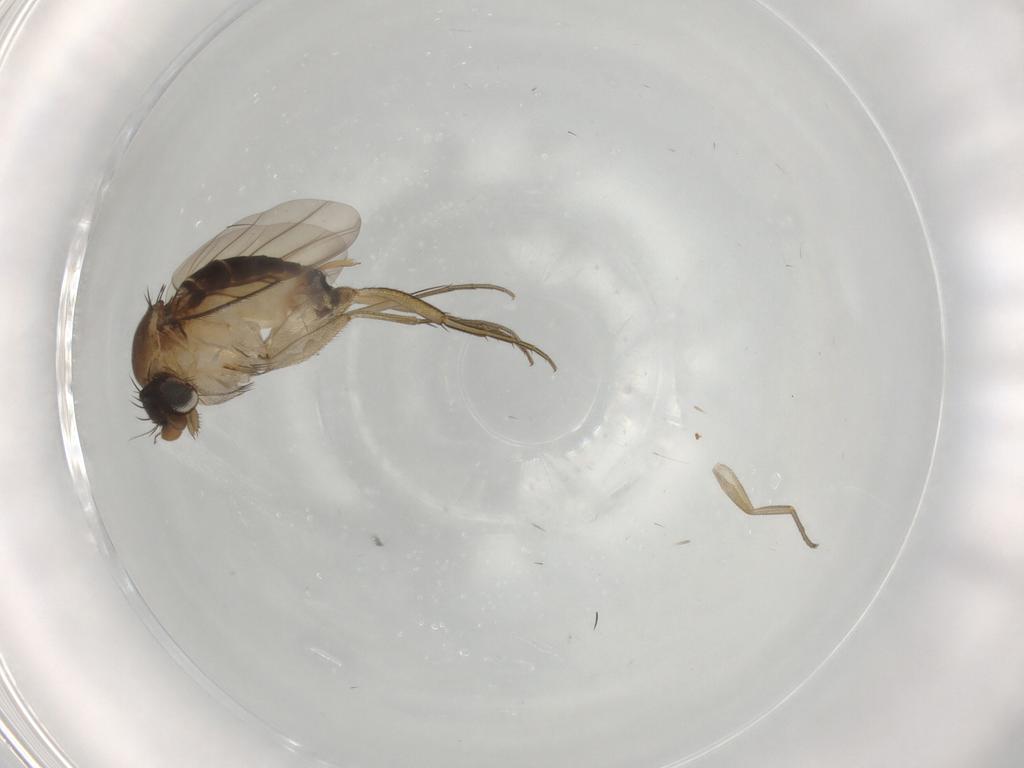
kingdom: Animalia
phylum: Arthropoda
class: Insecta
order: Diptera
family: Phoridae
